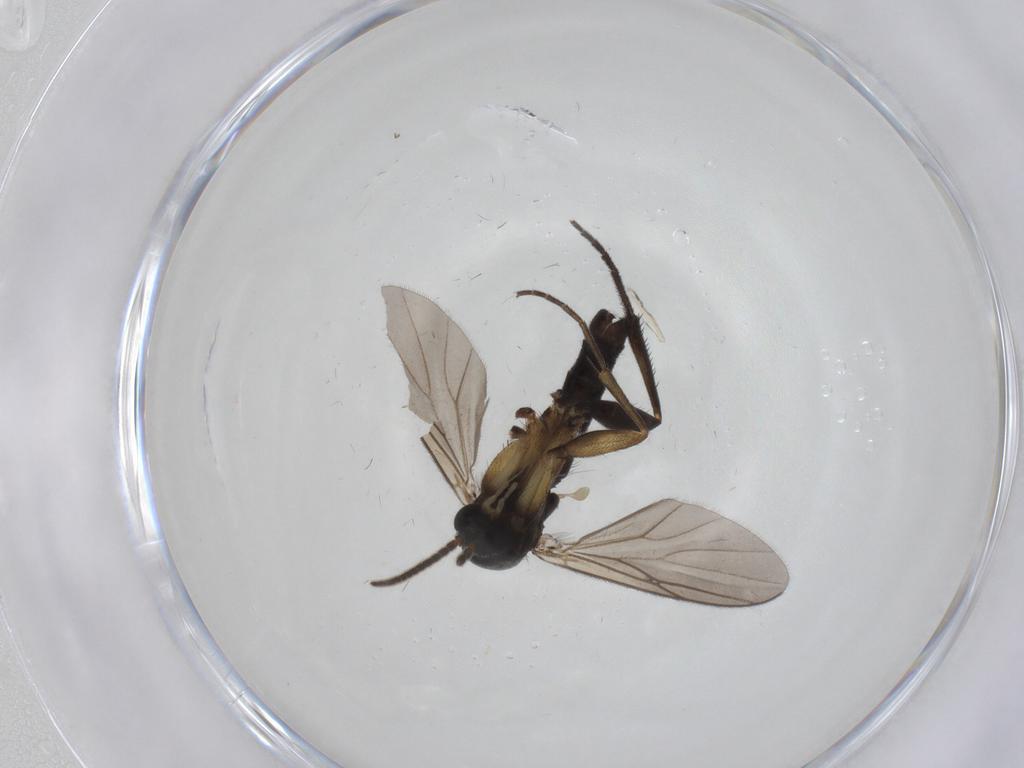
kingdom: Animalia
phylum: Arthropoda
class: Insecta
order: Diptera
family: Mycetophilidae
